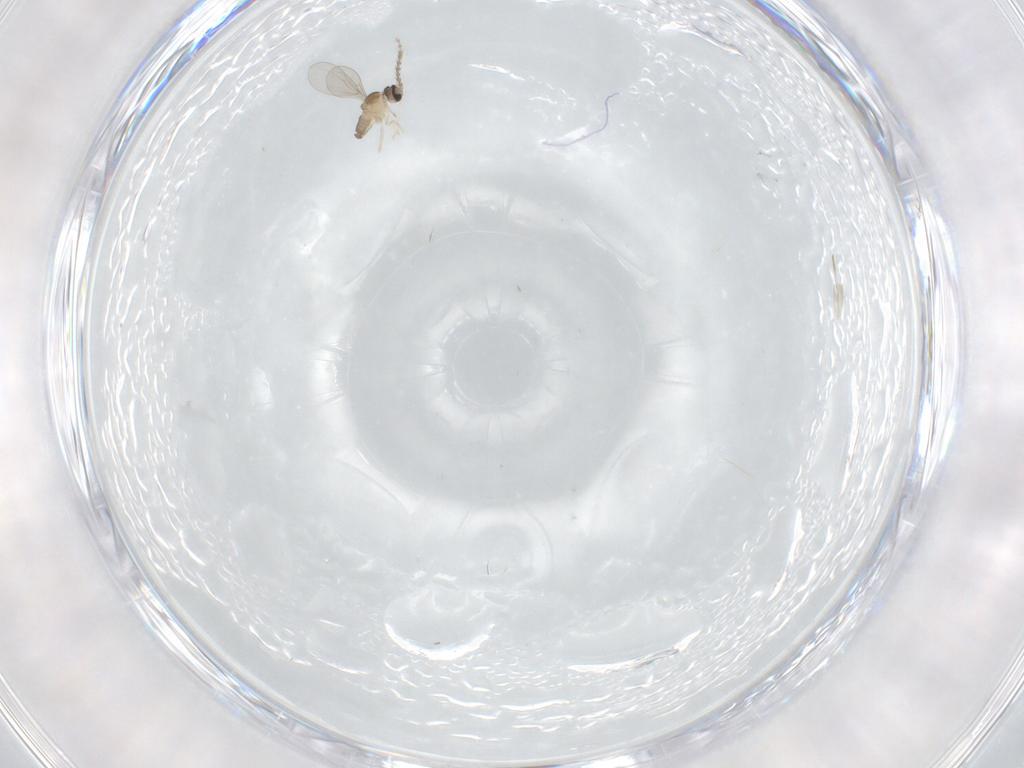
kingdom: Animalia
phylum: Arthropoda
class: Insecta
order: Diptera
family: Cecidomyiidae
